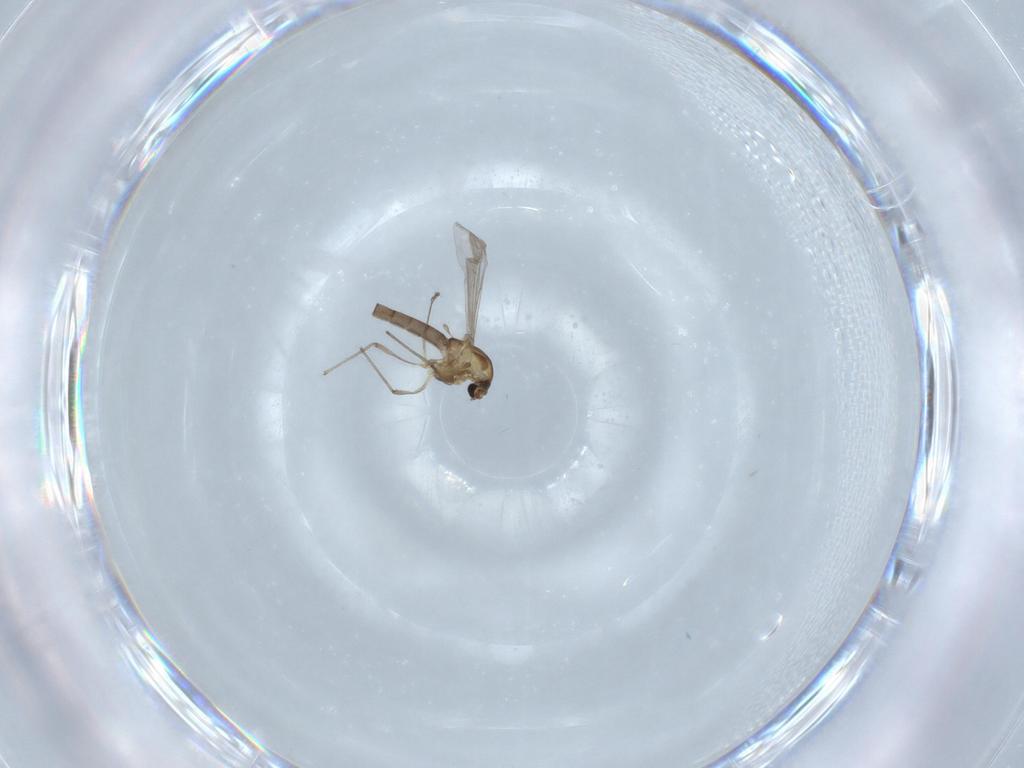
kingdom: Animalia
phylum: Arthropoda
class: Insecta
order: Diptera
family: Chironomidae
